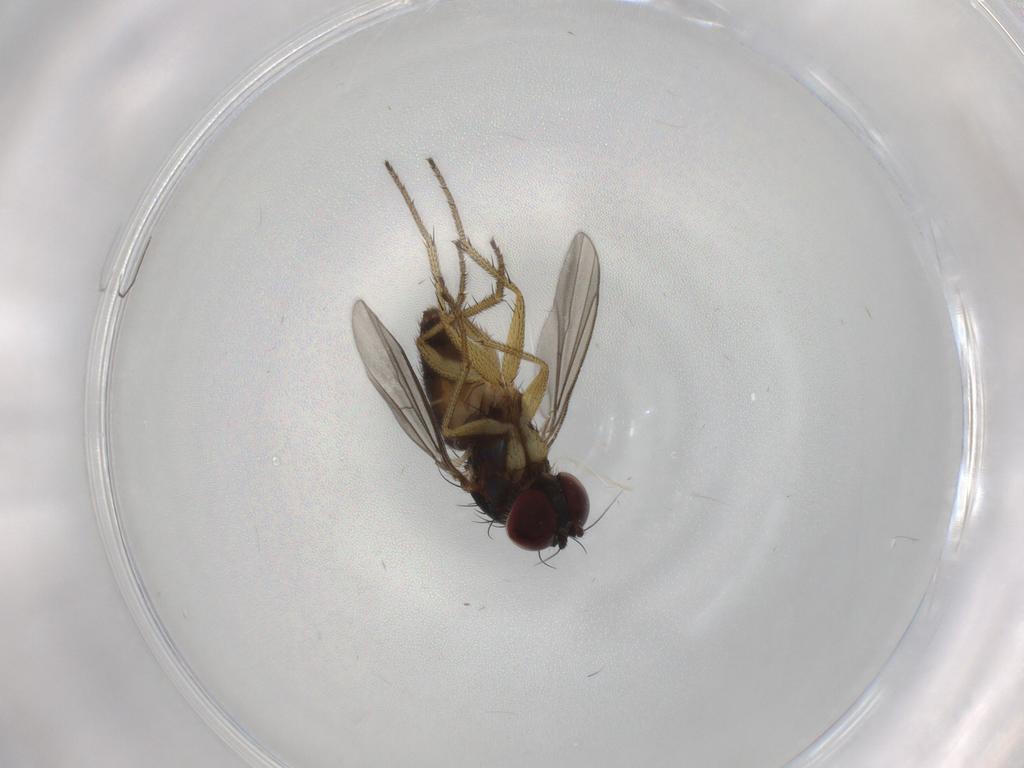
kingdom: Animalia
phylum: Arthropoda
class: Insecta
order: Diptera
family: Dolichopodidae
